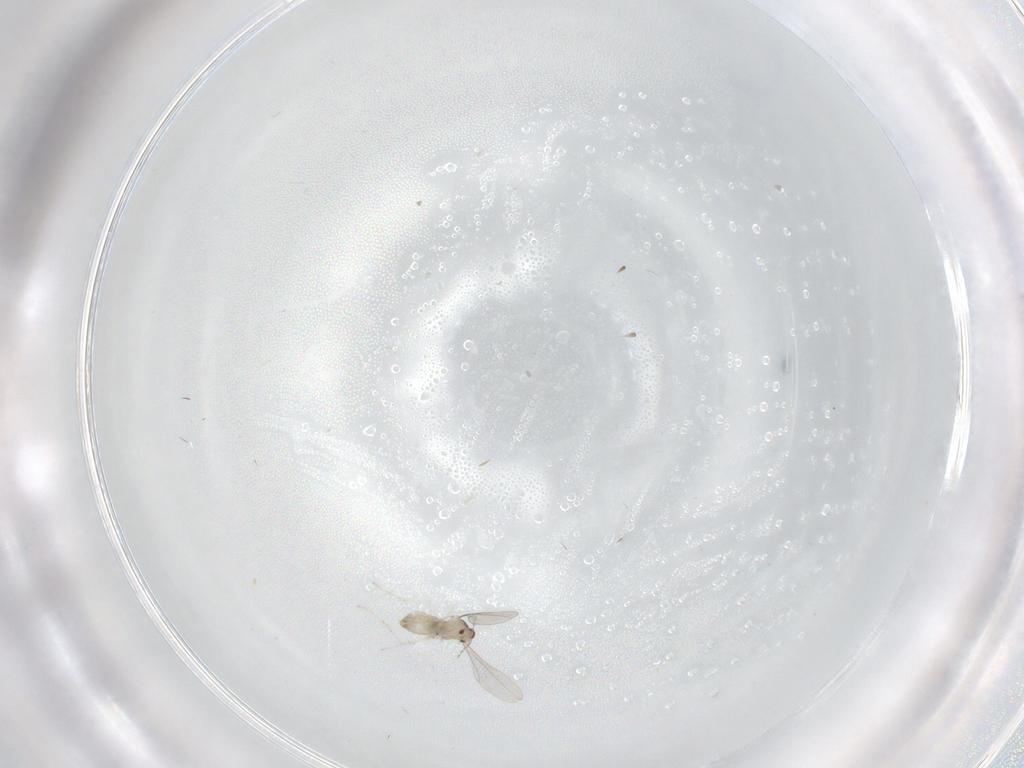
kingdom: Animalia
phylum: Arthropoda
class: Insecta
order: Diptera
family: Cecidomyiidae
